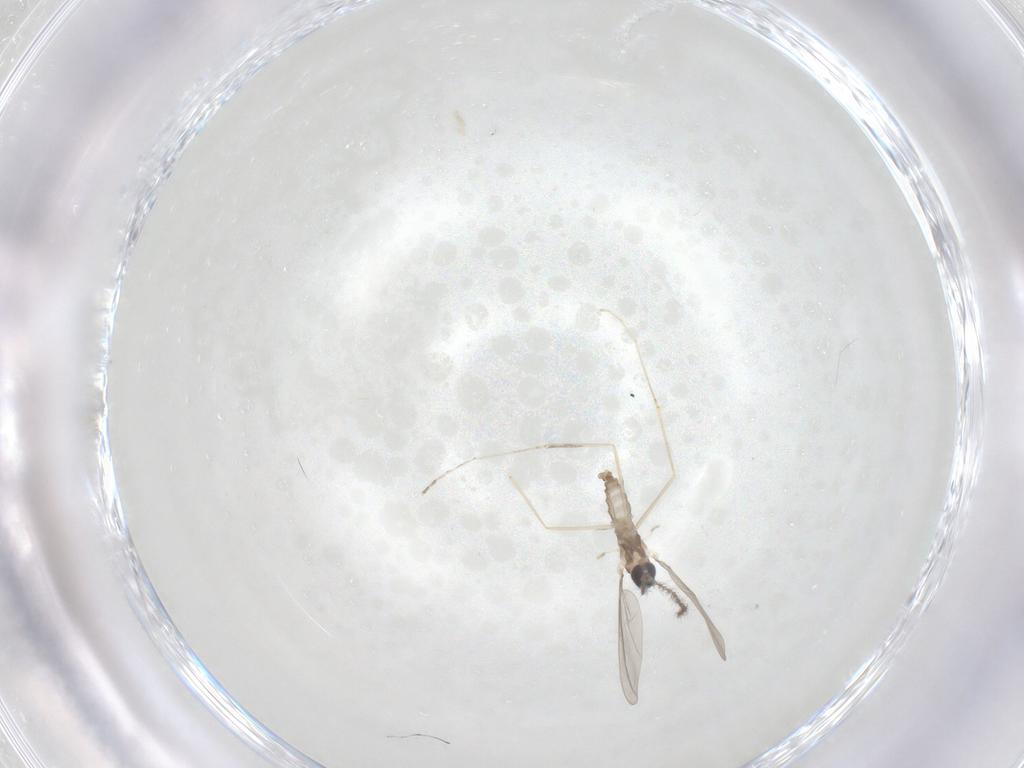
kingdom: Animalia
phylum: Arthropoda
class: Insecta
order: Diptera
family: Cecidomyiidae
